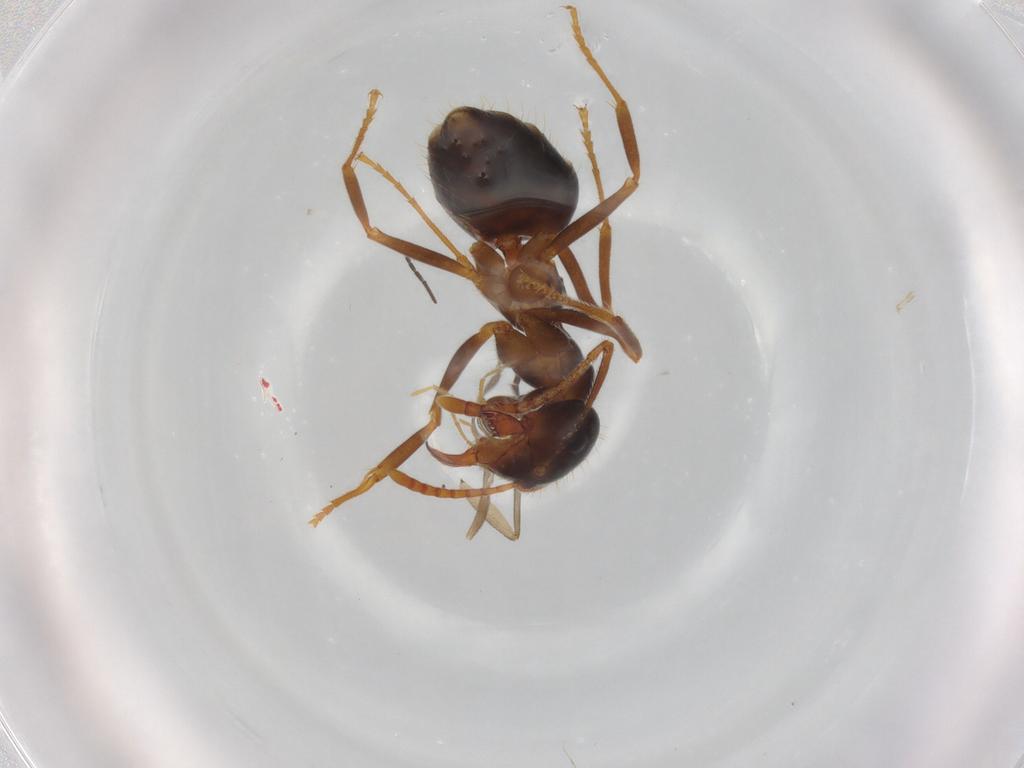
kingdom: Animalia
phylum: Arthropoda
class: Insecta
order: Hymenoptera
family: Formicidae
